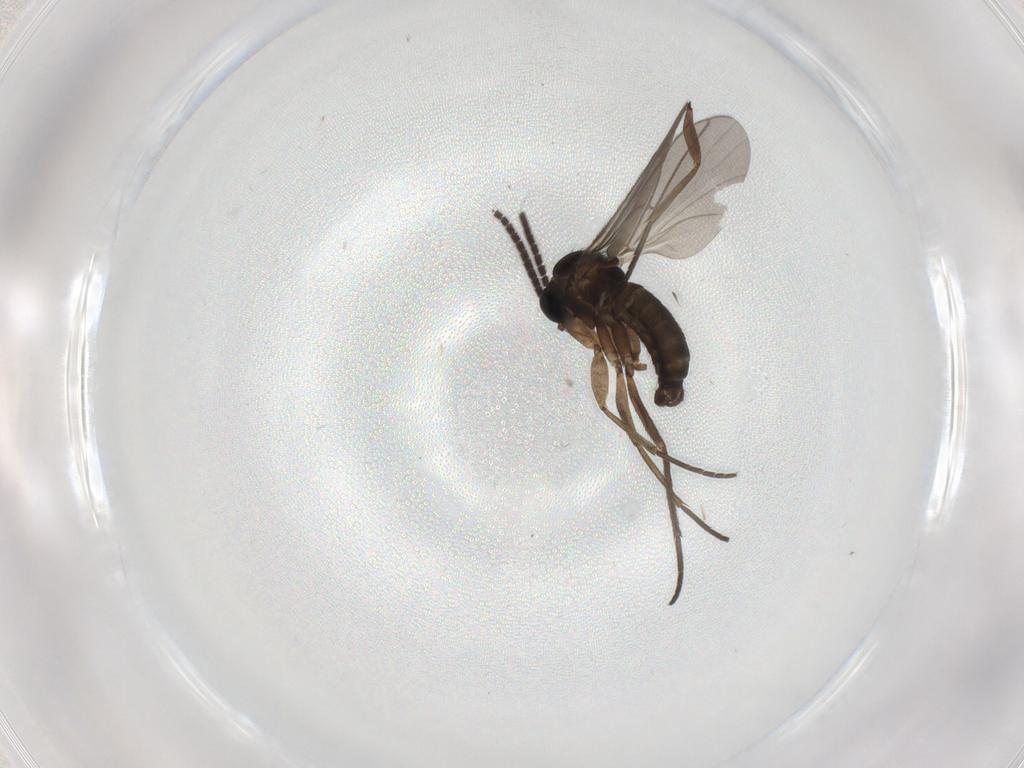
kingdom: Animalia
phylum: Arthropoda
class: Insecta
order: Diptera
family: Sciaridae
